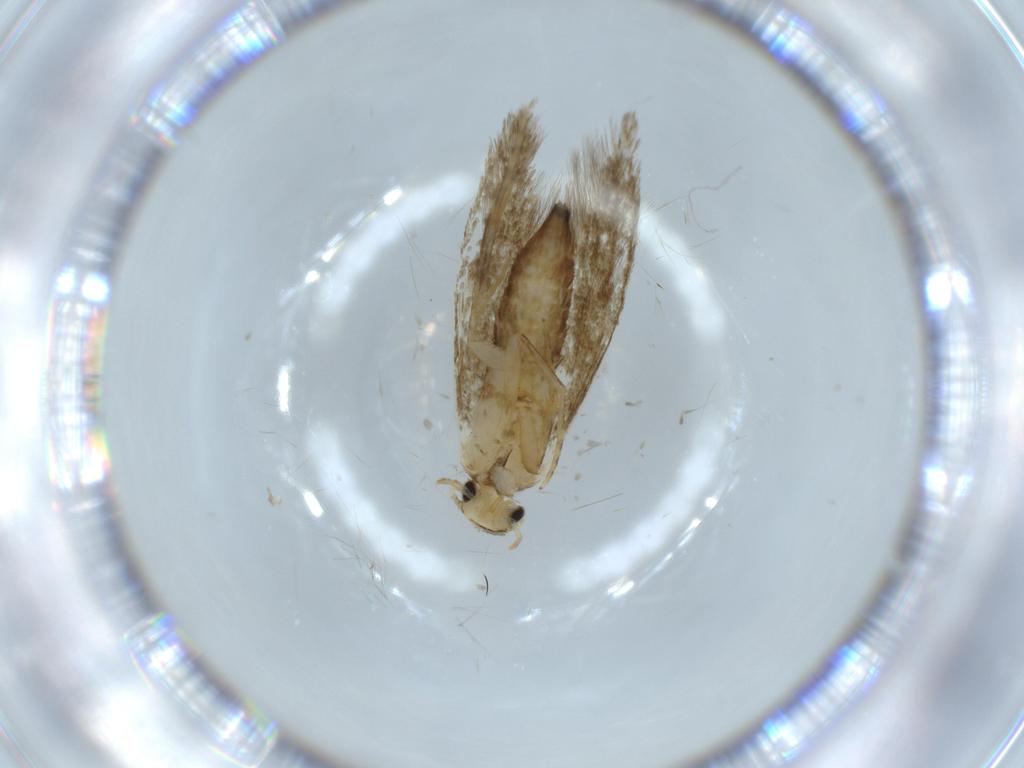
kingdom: Animalia
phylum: Arthropoda
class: Insecta
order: Lepidoptera
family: Tineidae
